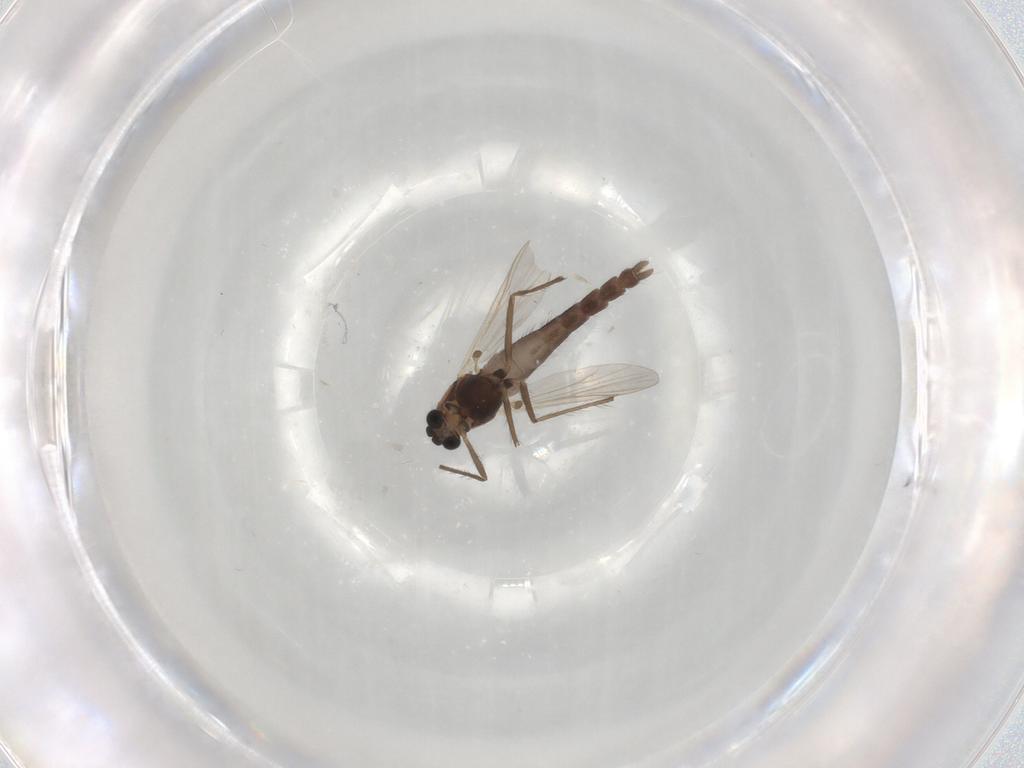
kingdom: Animalia
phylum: Arthropoda
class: Insecta
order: Diptera
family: Chironomidae
